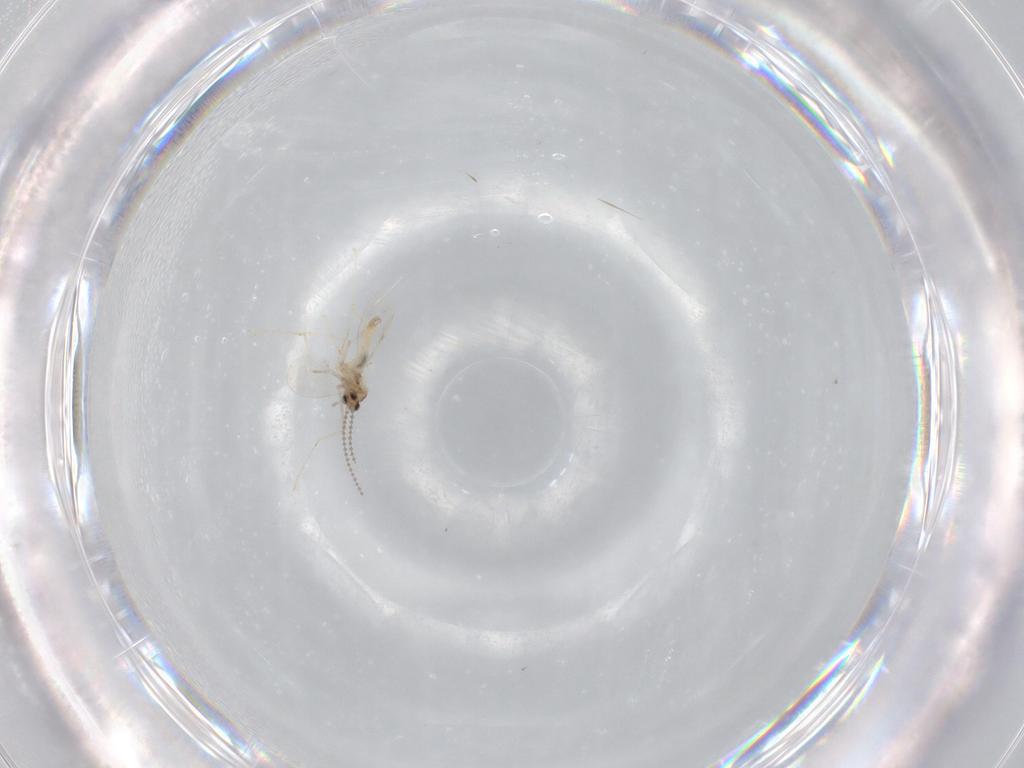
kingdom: Animalia
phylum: Arthropoda
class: Insecta
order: Diptera
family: Cecidomyiidae
